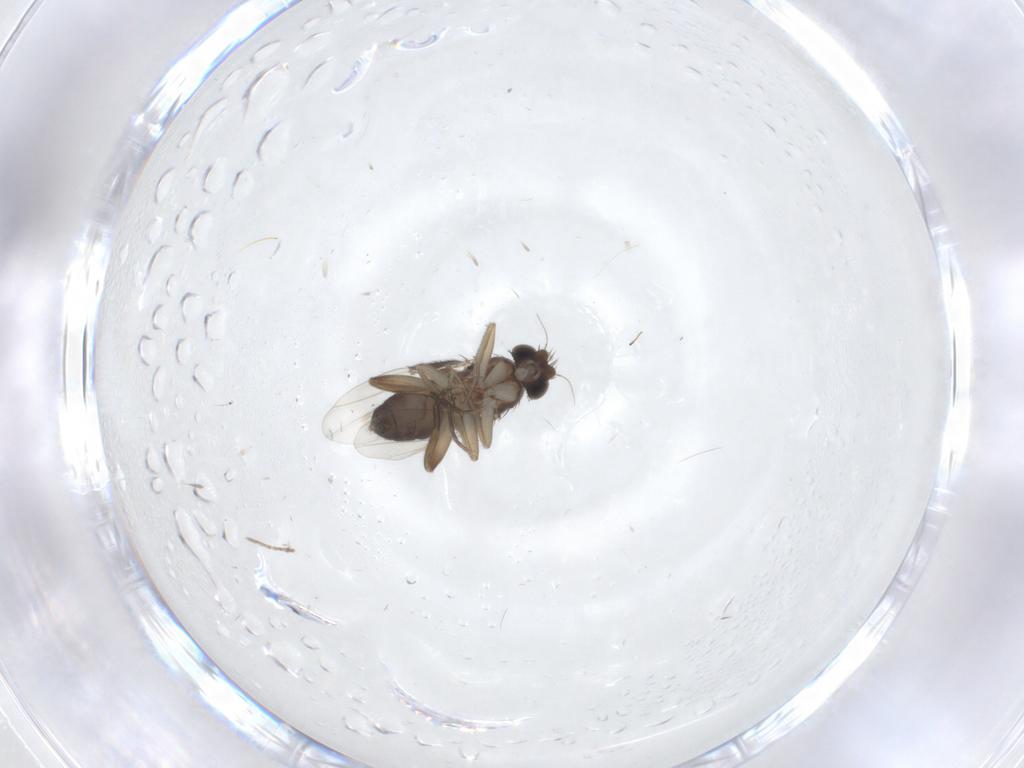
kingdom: Animalia
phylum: Arthropoda
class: Insecta
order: Diptera
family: Phoridae
